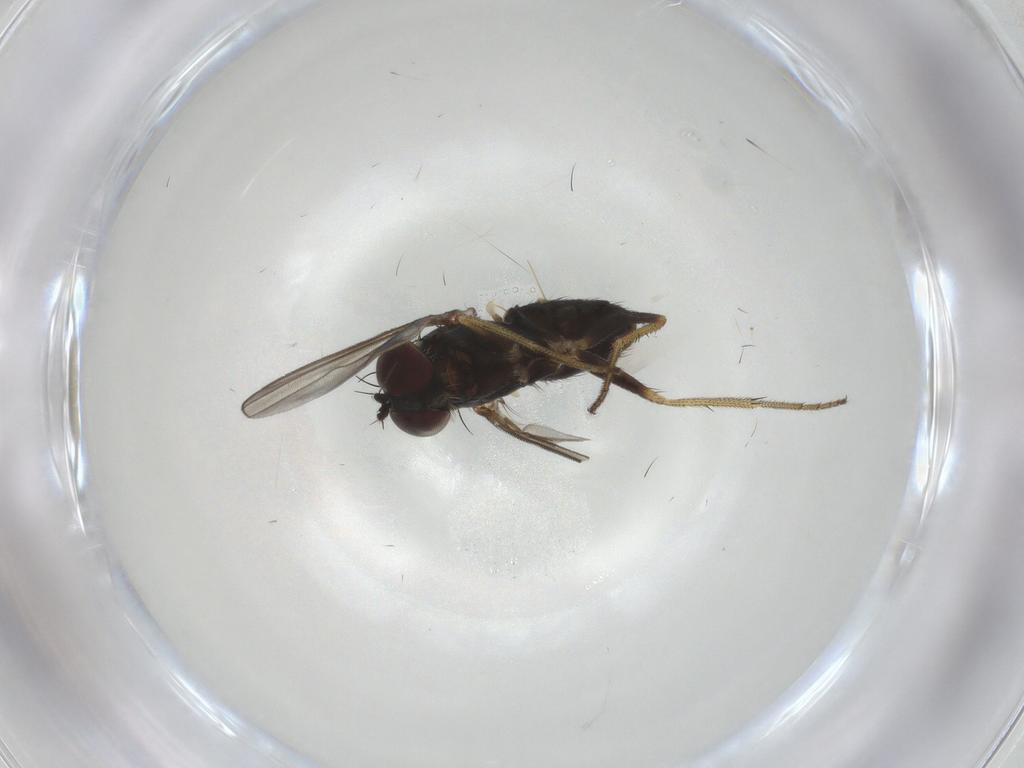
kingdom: Animalia
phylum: Arthropoda
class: Insecta
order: Diptera
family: Dolichopodidae
